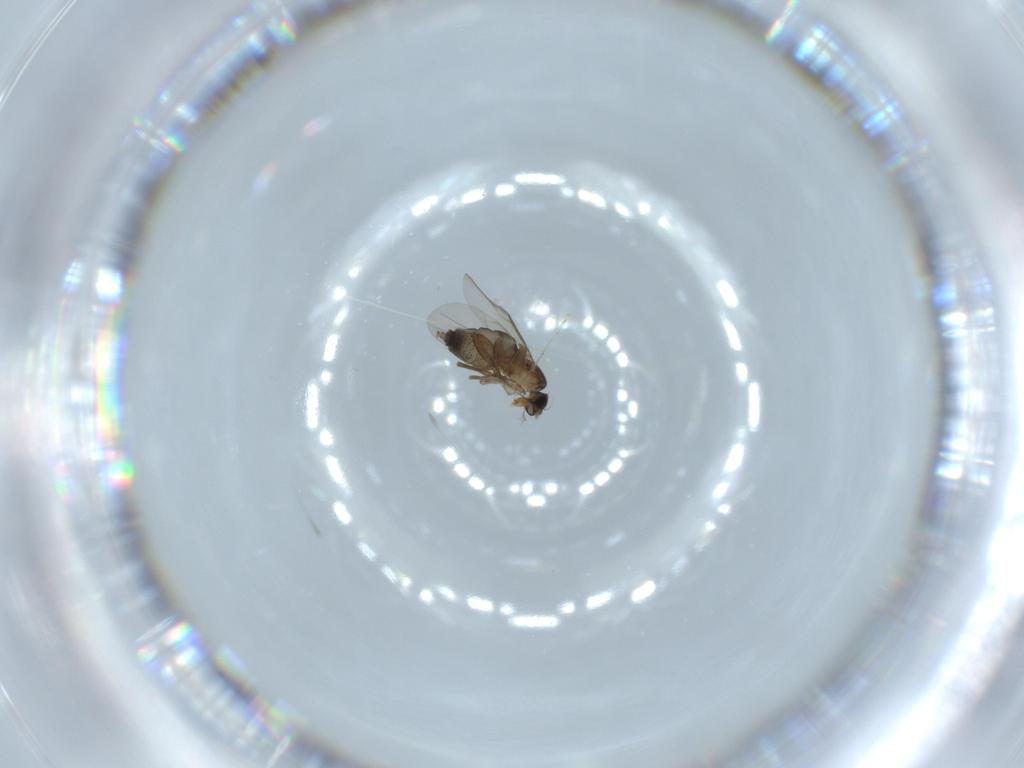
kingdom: Animalia
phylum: Arthropoda
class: Insecta
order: Diptera
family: Phoridae
